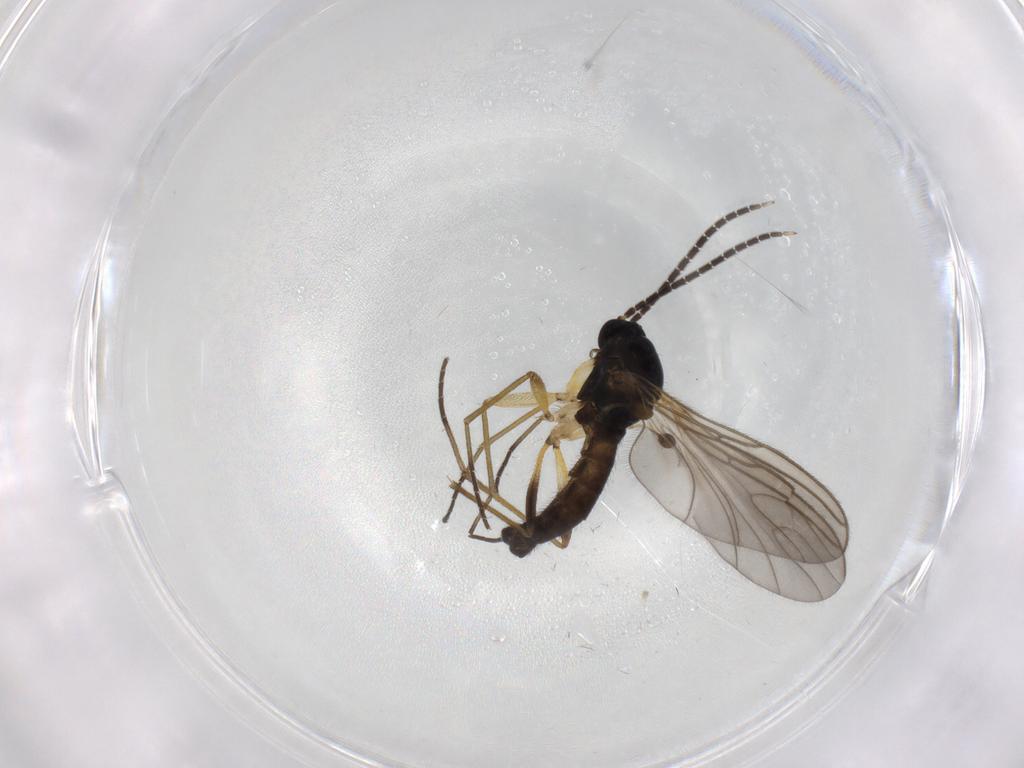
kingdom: Animalia
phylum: Arthropoda
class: Insecta
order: Diptera
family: Sciaridae
